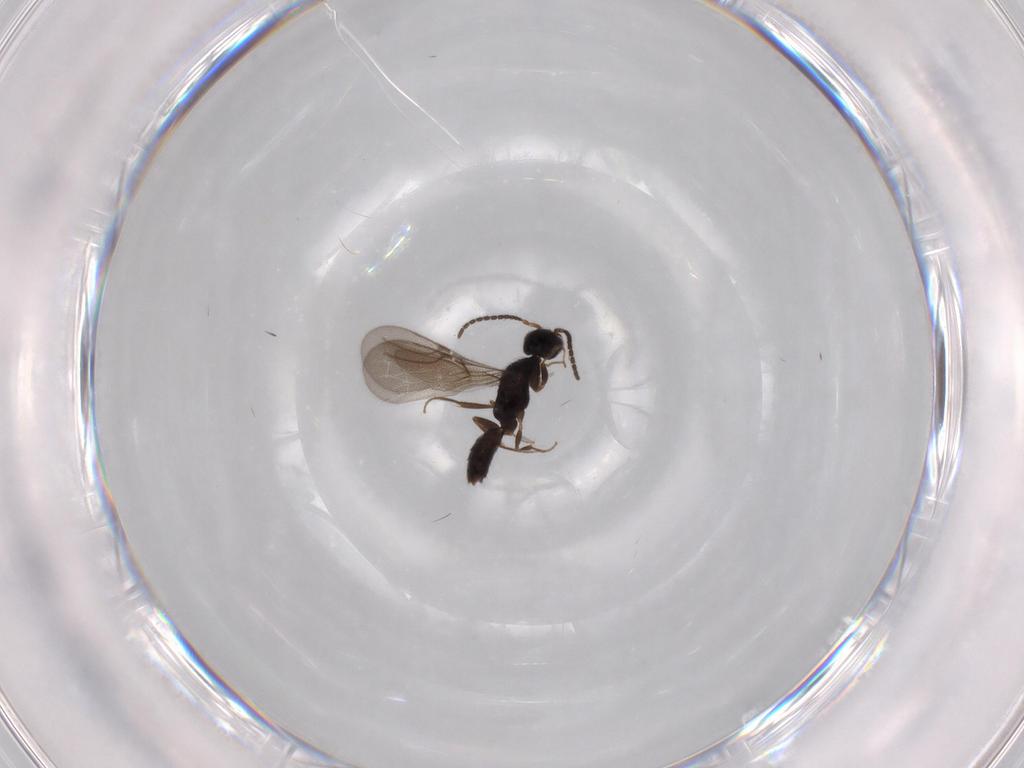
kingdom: Animalia
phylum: Arthropoda
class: Insecta
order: Hymenoptera
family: Bethylidae
